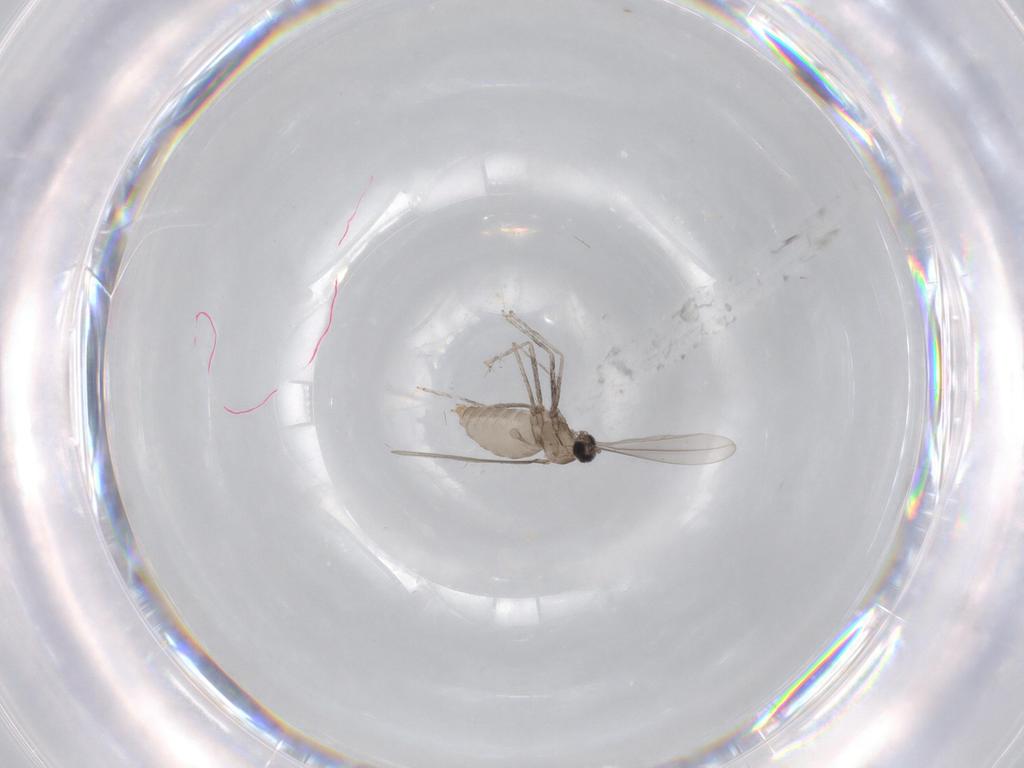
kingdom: Animalia
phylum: Arthropoda
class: Insecta
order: Diptera
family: Cecidomyiidae
